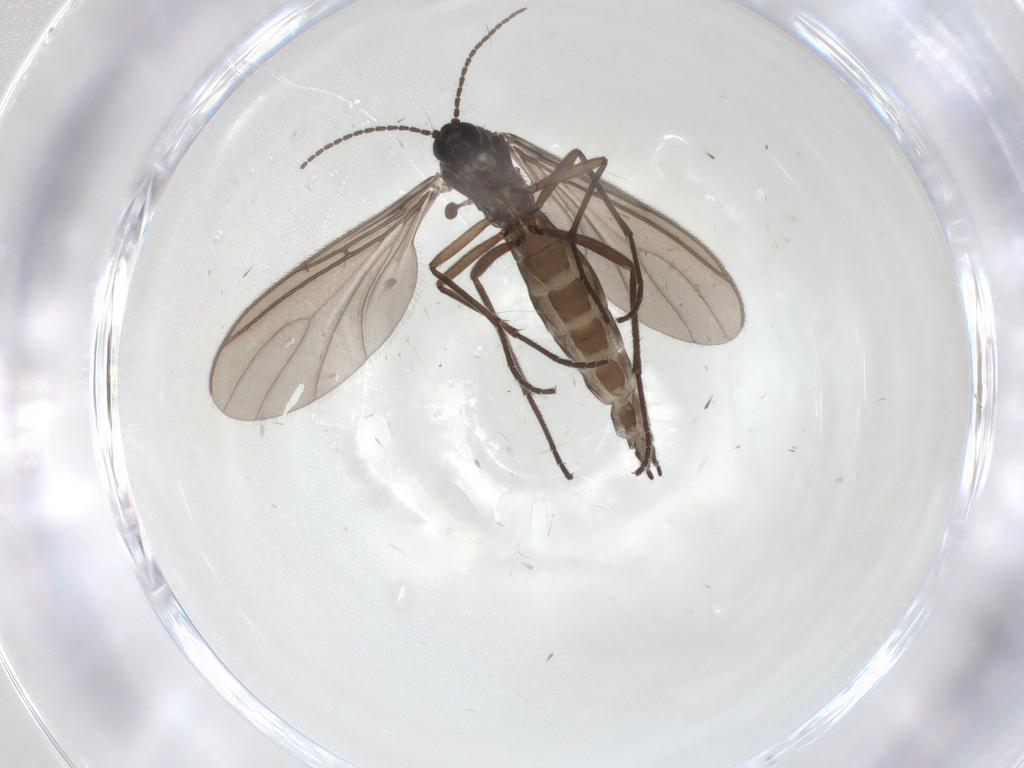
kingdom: Animalia
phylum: Arthropoda
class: Insecta
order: Diptera
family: Sciaridae
